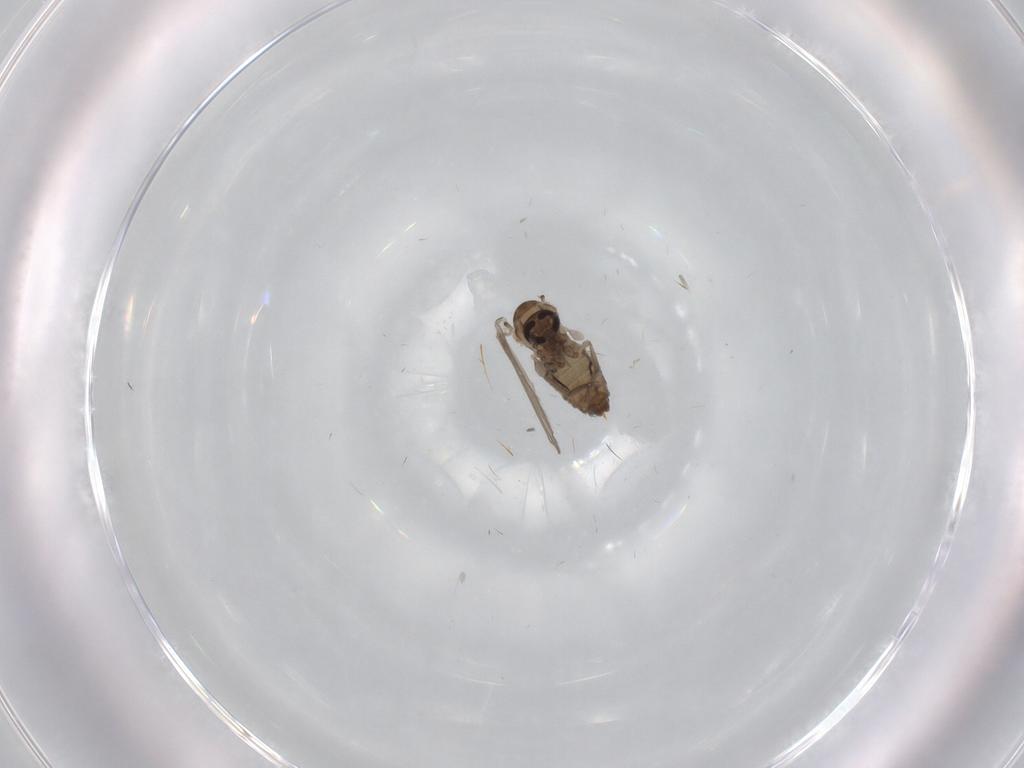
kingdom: Animalia
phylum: Arthropoda
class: Insecta
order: Diptera
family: Psychodidae
